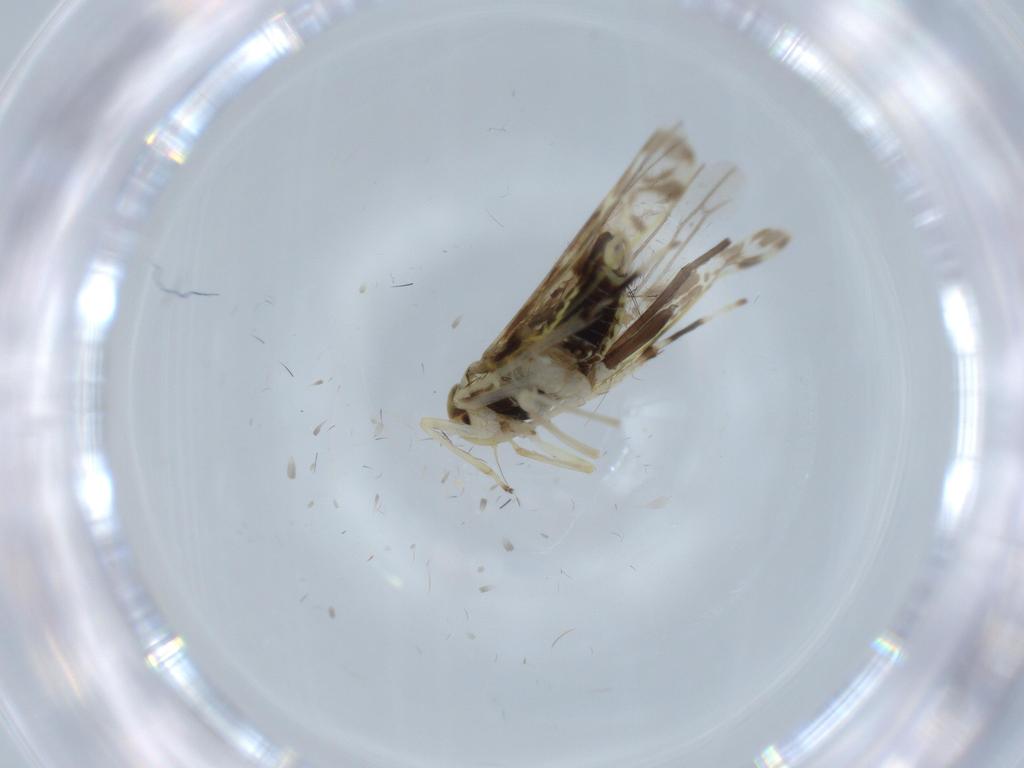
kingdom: Animalia
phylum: Arthropoda
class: Insecta
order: Hemiptera
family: Cicadellidae
